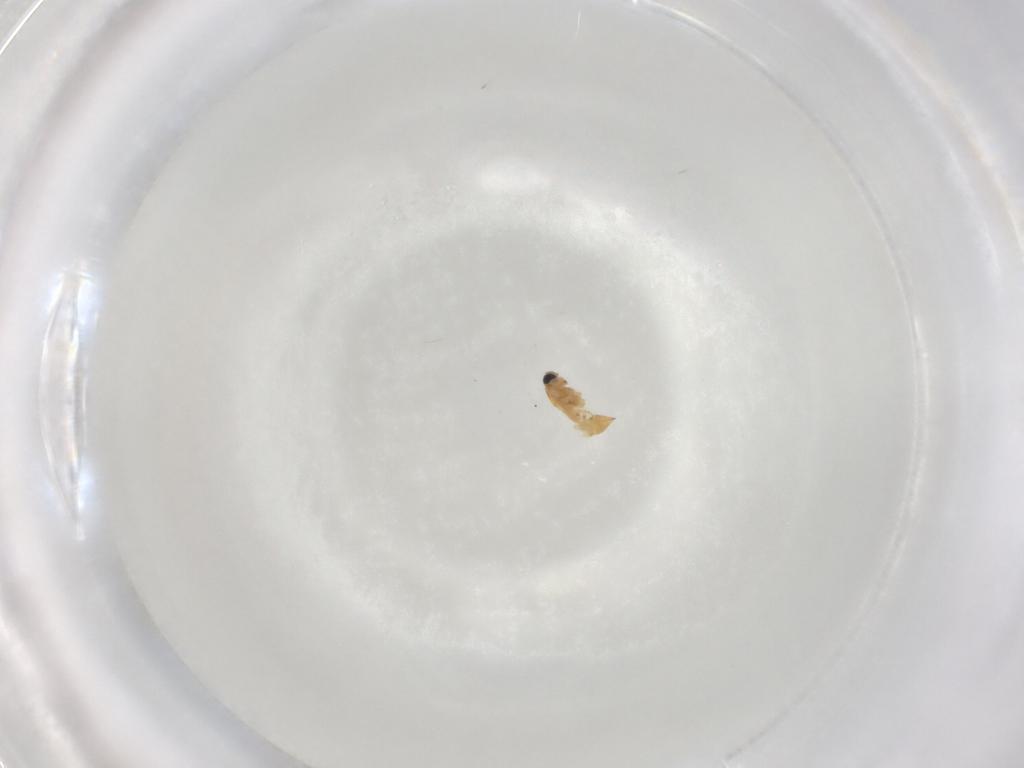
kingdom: Animalia
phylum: Arthropoda
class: Insecta
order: Hymenoptera
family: Trichogrammatidae
